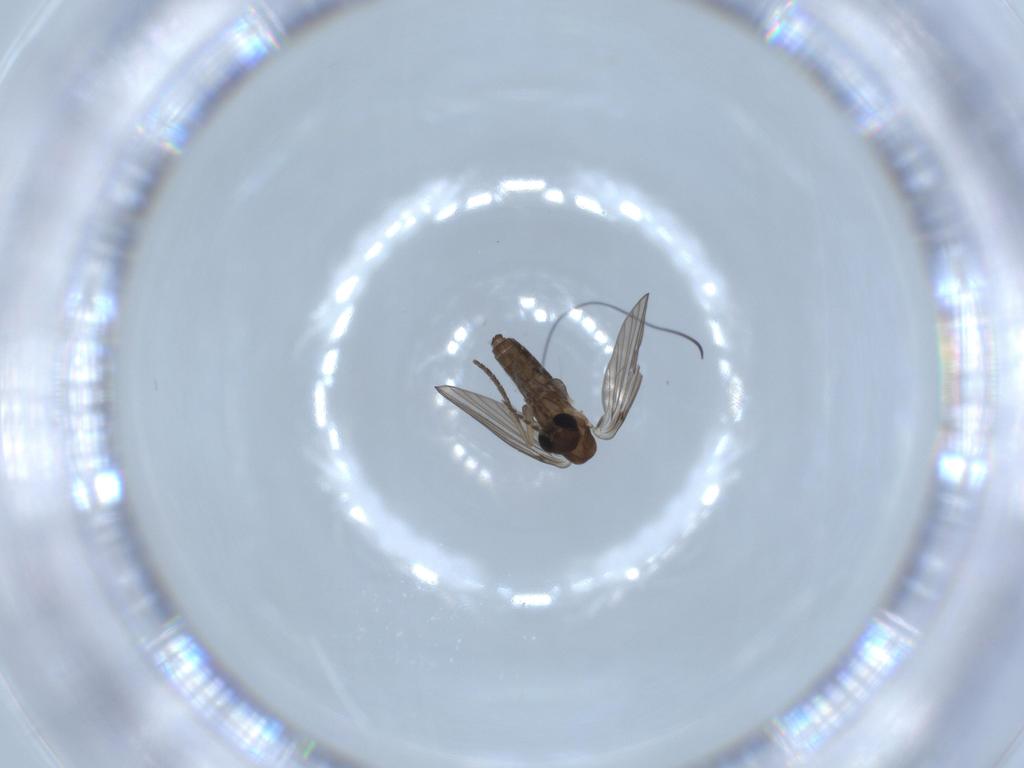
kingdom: Animalia
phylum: Arthropoda
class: Insecta
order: Diptera
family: Psychodidae
